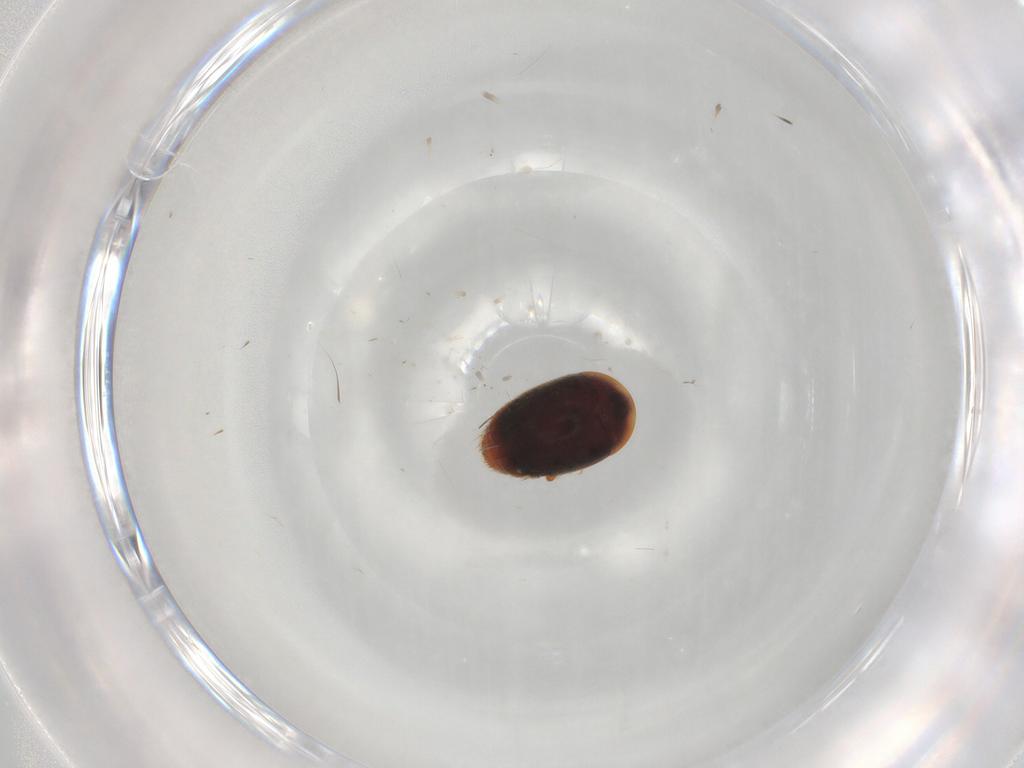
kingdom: Animalia
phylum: Arthropoda
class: Insecta
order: Coleoptera
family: Corylophidae
